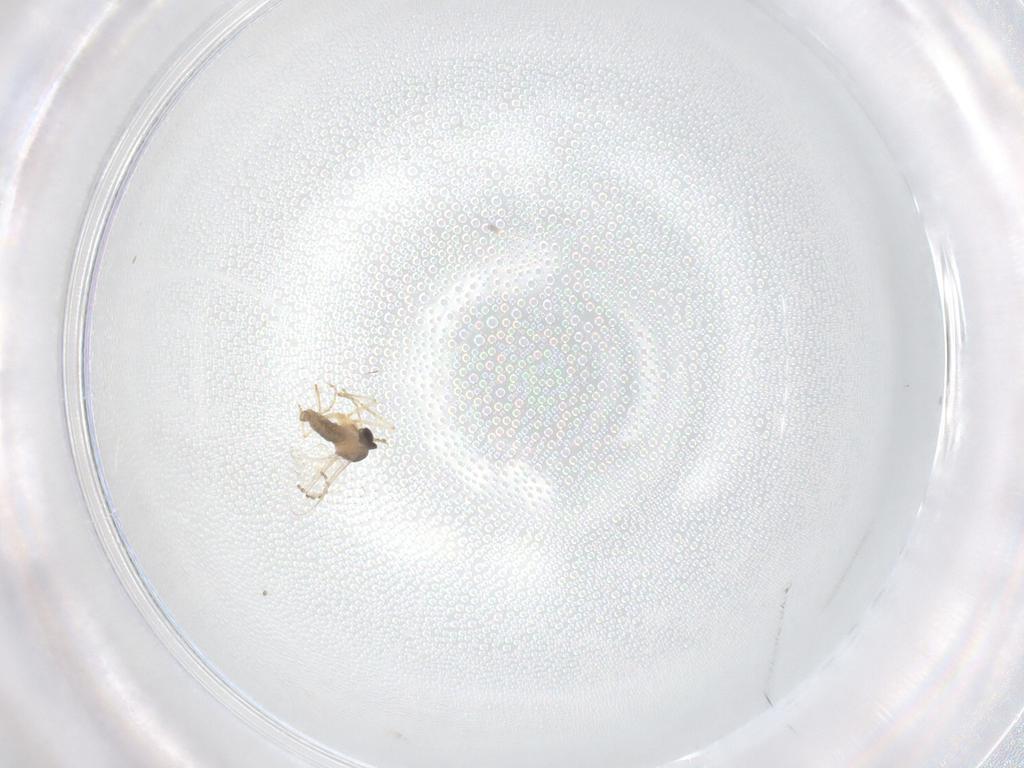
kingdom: Animalia
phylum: Arthropoda
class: Insecta
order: Diptera
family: Cecidomyiidae
